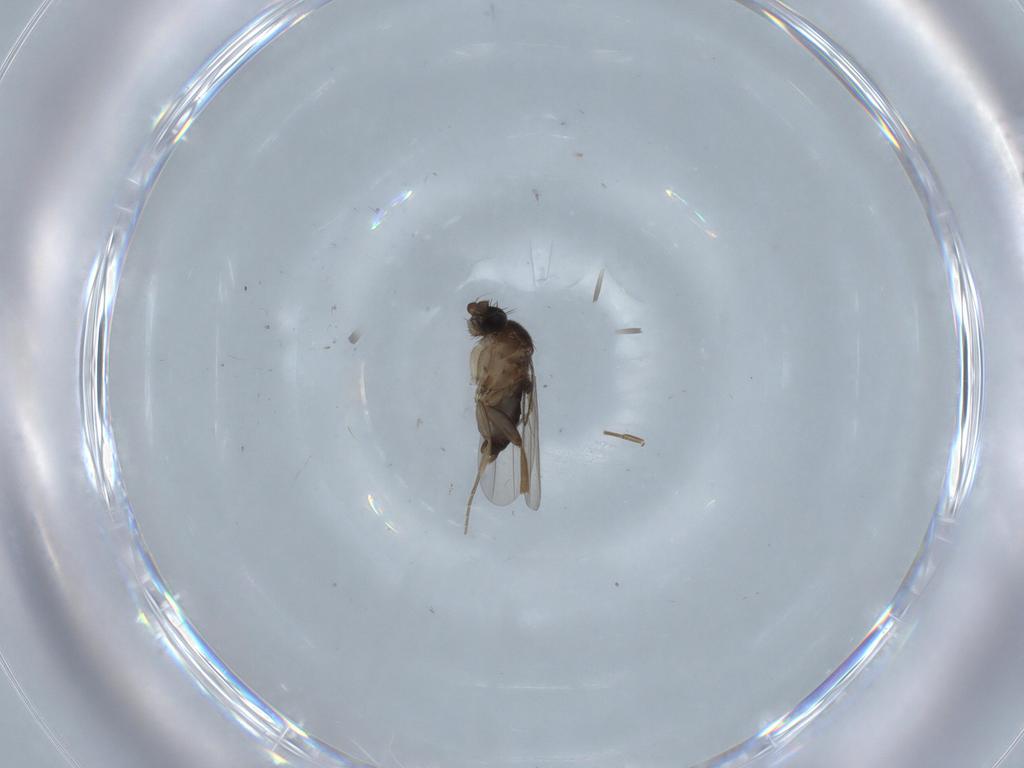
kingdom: Animalia
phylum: Arthropoda
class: Insecta
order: Diptera
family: Phoridae
